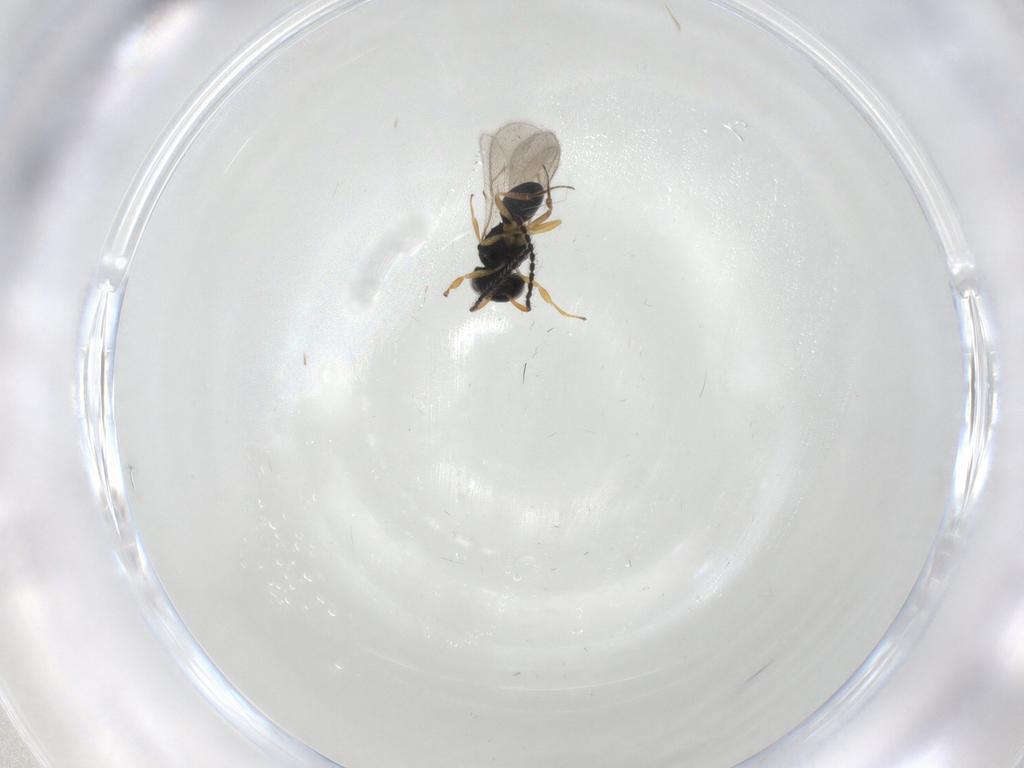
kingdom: Animalia
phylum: Arthropoda
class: Insecta
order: Hymenoptera
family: Scelionidae
